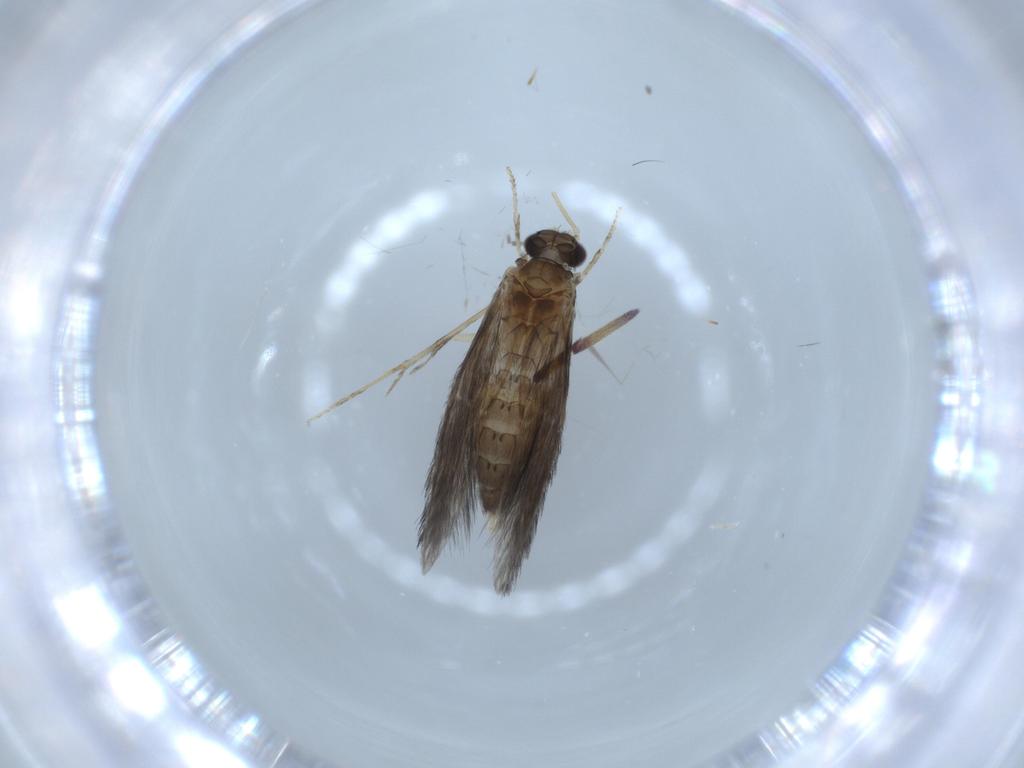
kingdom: Animalia
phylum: Arthropoda
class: Insecta
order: Trichoptera
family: Hydroptilidae
